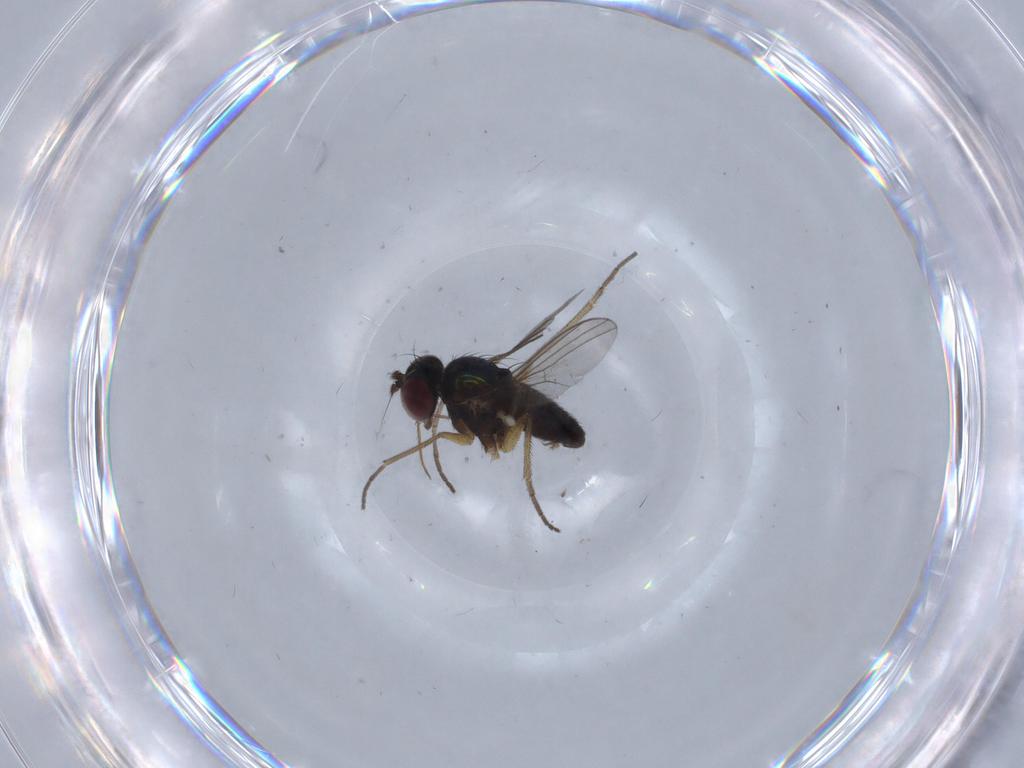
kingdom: Animalia
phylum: Arthropoda
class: Insecta
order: Diptera
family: Dolichopodidae
